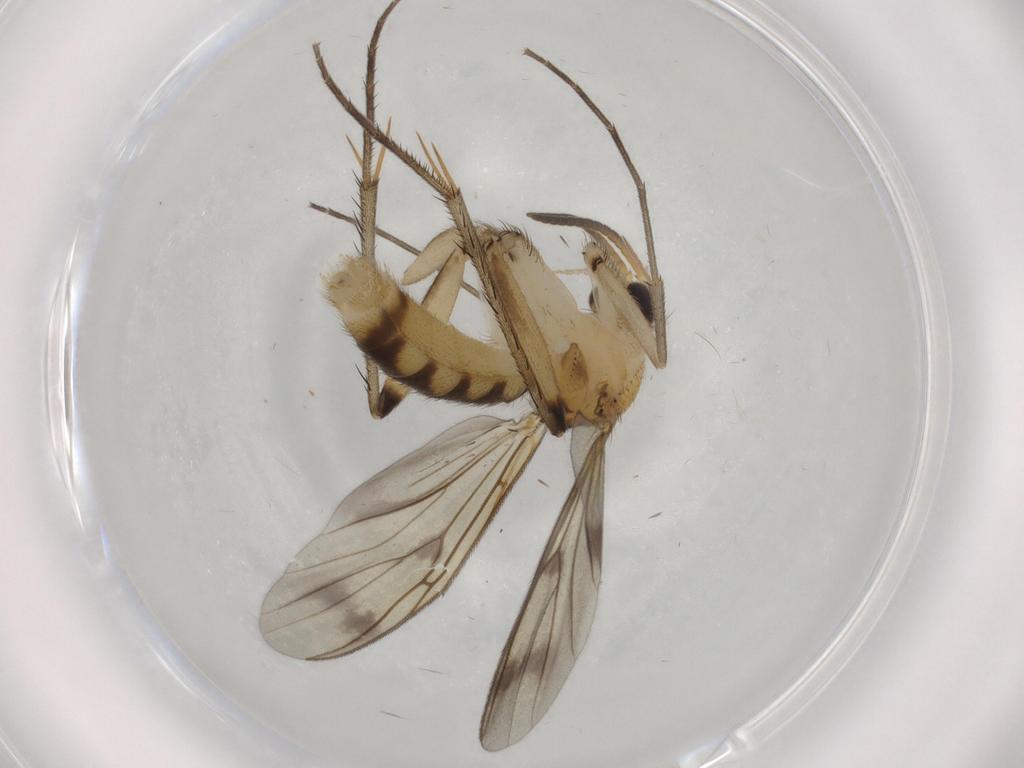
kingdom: Animalia
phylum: Arthropoda
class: Insecta
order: Diptera
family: Mycetophilidae
